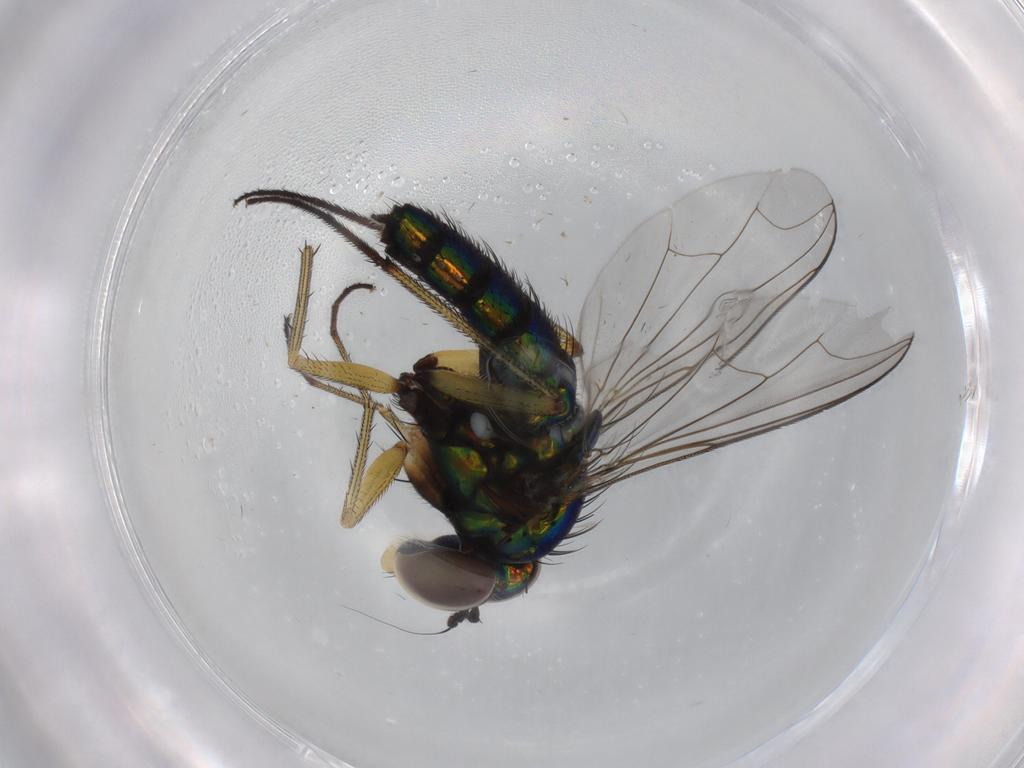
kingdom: Animalia
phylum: Arthropoda
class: Insecta
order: Diptera
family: Dolichopodidae
